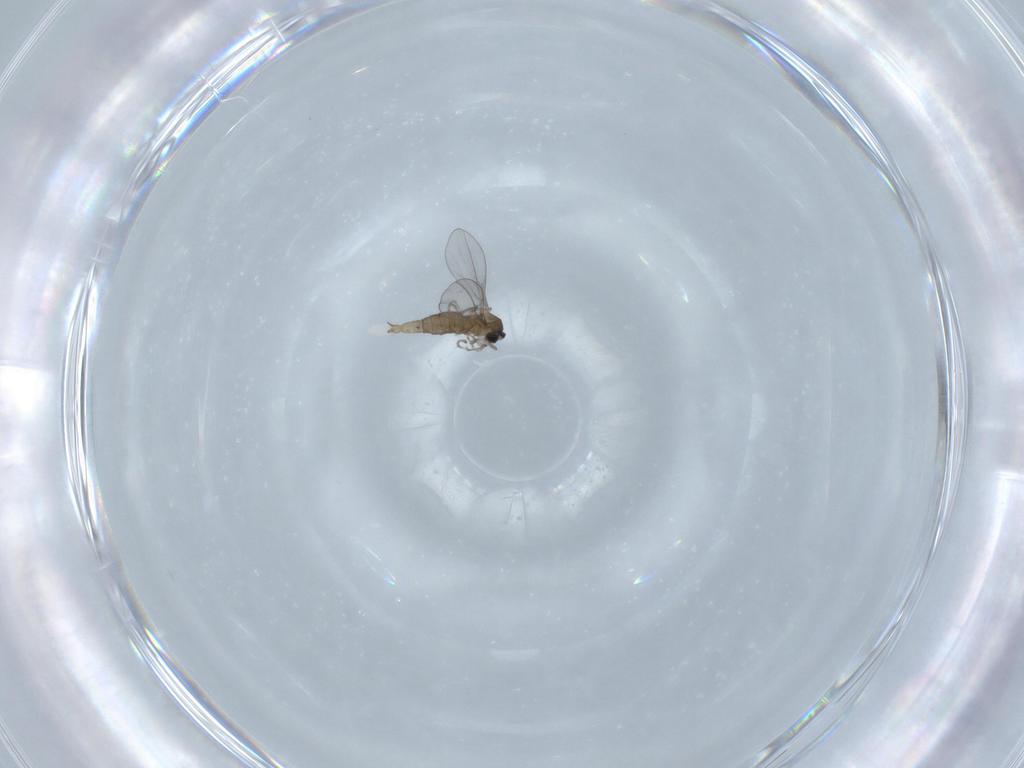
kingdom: Animalia
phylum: Arthropoda
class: Insecta
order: Diptera
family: Cecidomyiidae
